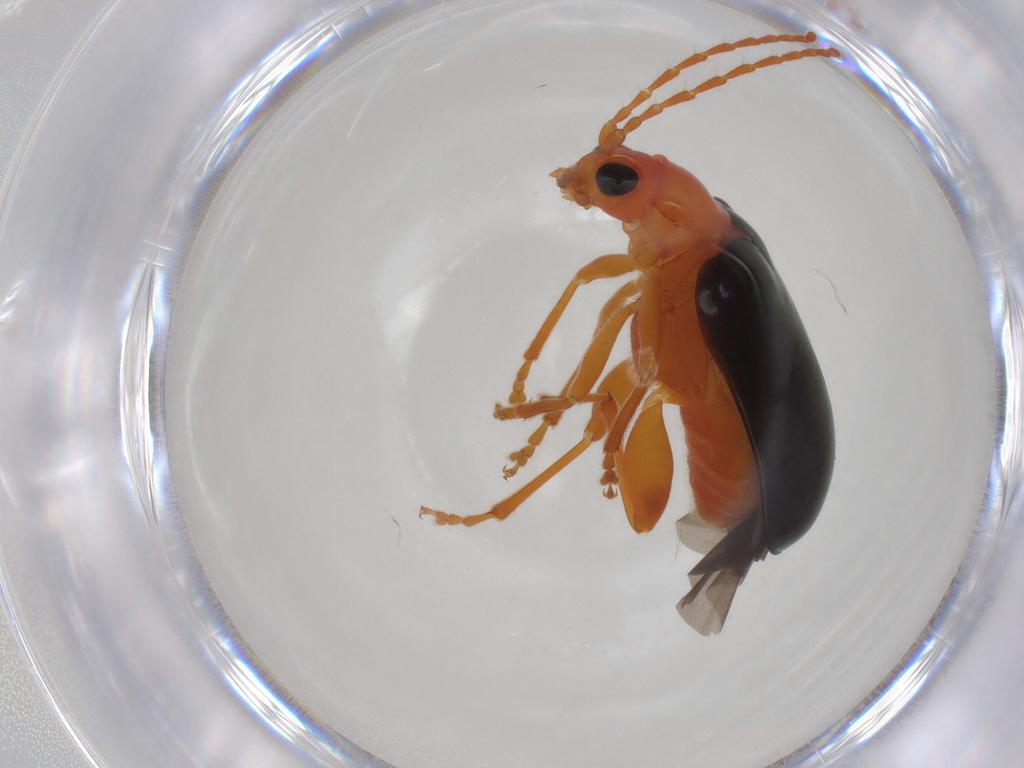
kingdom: Animalia
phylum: Arthropoda
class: Insecta
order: Coleoptera
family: Chrysomelidae
